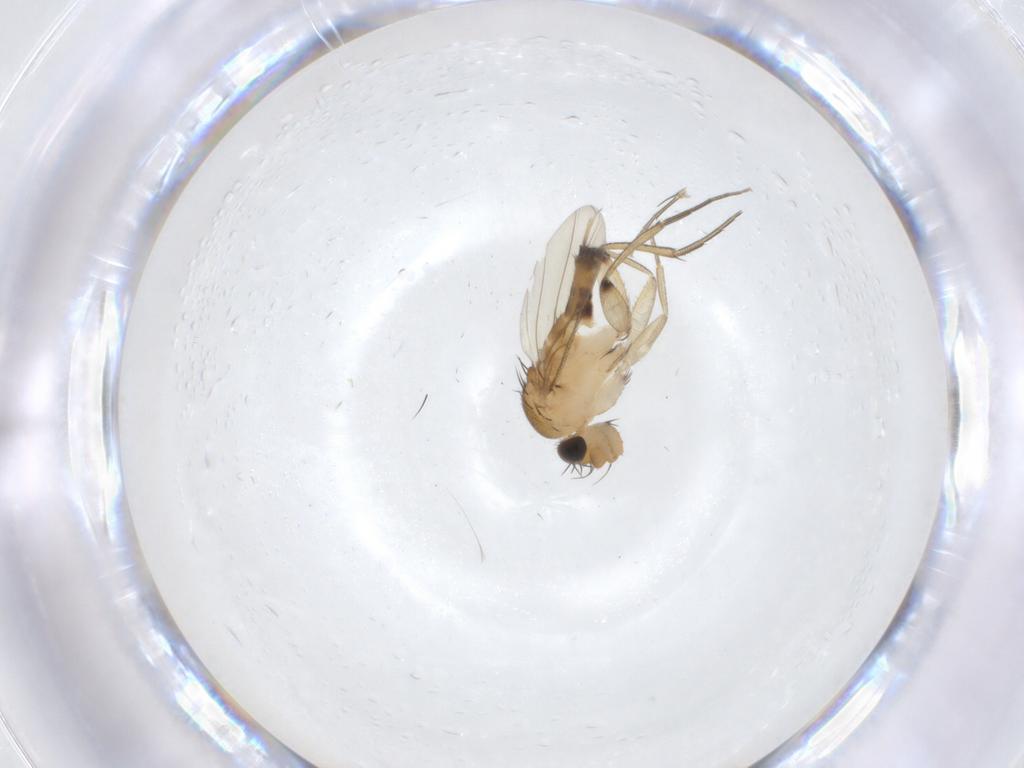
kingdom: Animalia
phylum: Arthropoda
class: Insecta
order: Diptera
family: Phoridae
